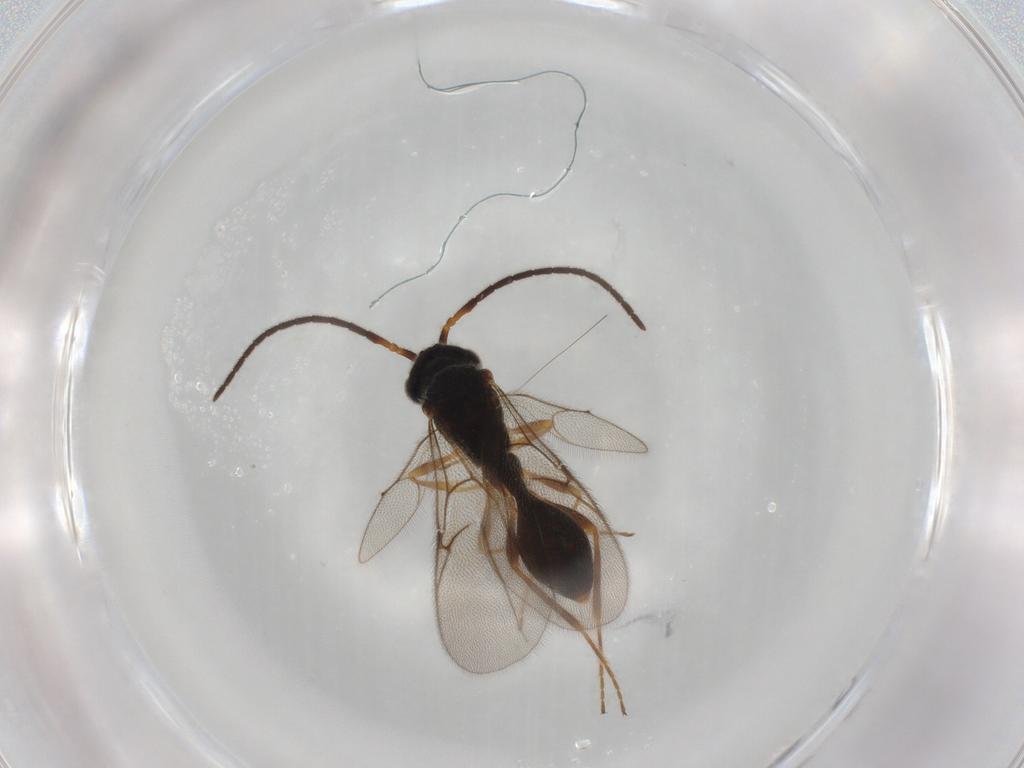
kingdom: Animalia
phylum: Arthropoda
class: Insecta
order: Hymenoptera
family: Diapriidae
